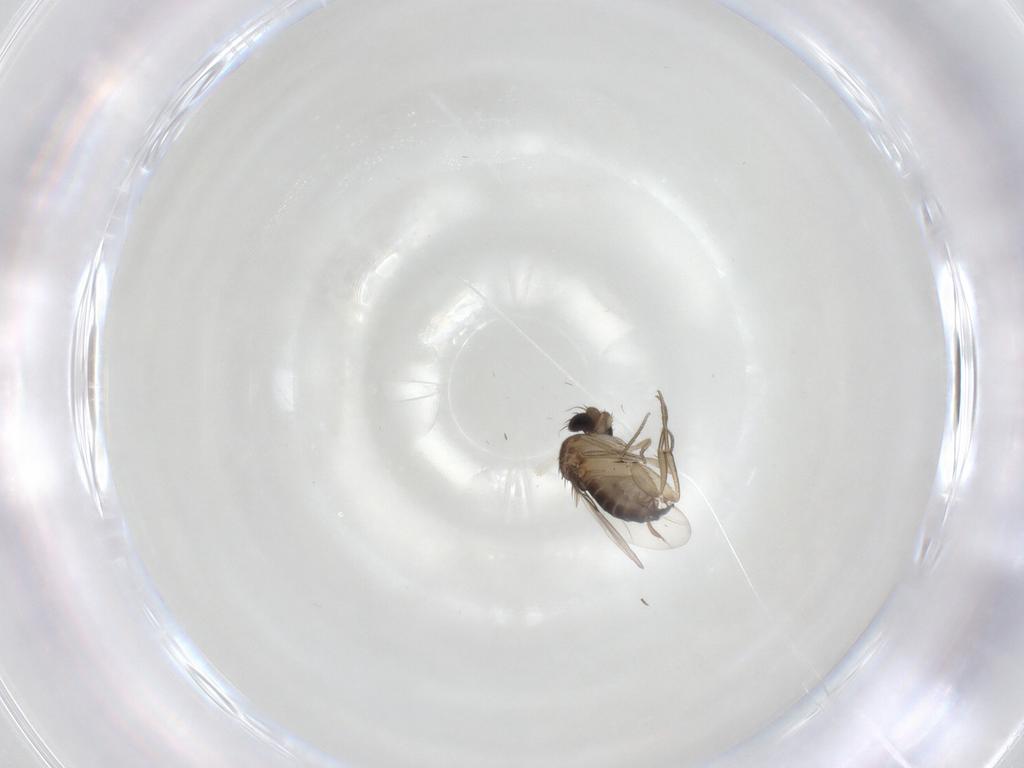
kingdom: Animalia
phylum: Arthropoda
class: Insecta
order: Diptera
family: Phoridae
